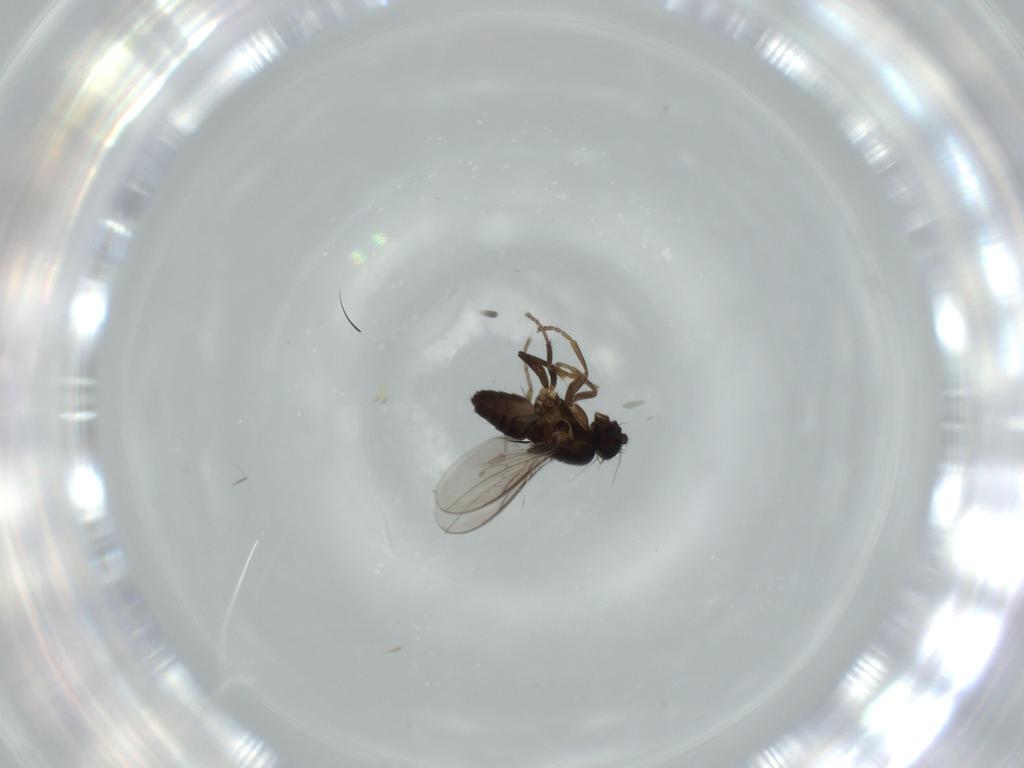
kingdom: Animalia
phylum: Arthropoda
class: Insecta
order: Diptera
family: Sphaeroceridae
